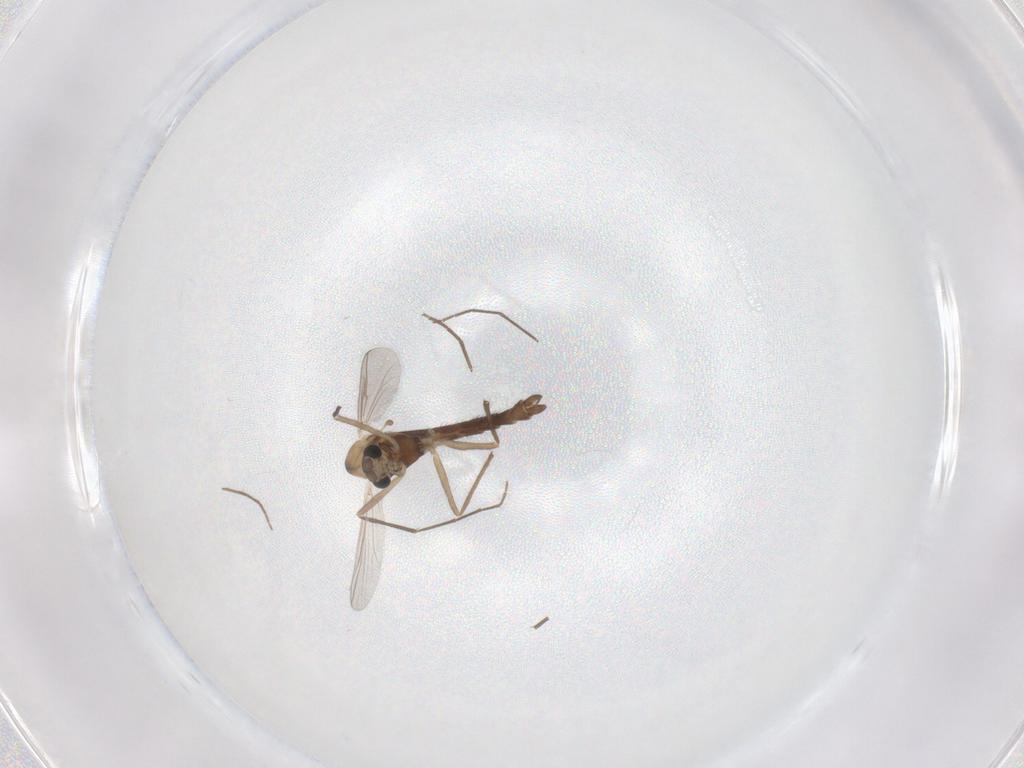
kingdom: Animalia
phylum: Arthropoda
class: Insecta
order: Diptera
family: Chironomidae
